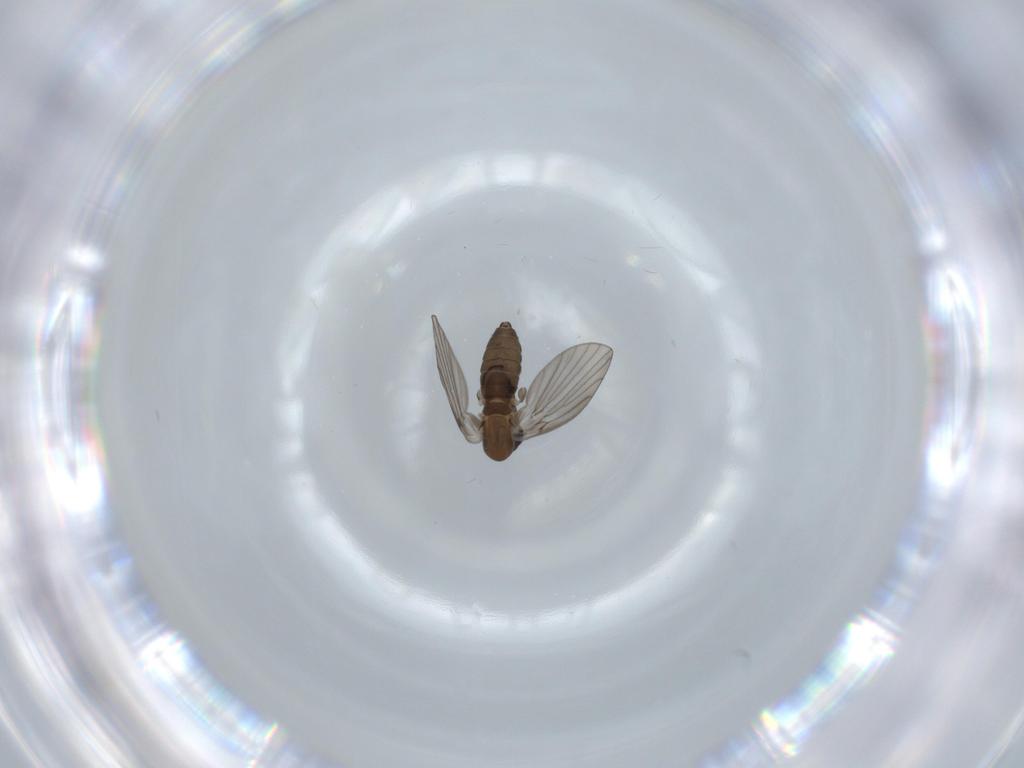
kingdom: Animalia
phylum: Arthropoda
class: Insecta
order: Diptera
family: Psychodidae
